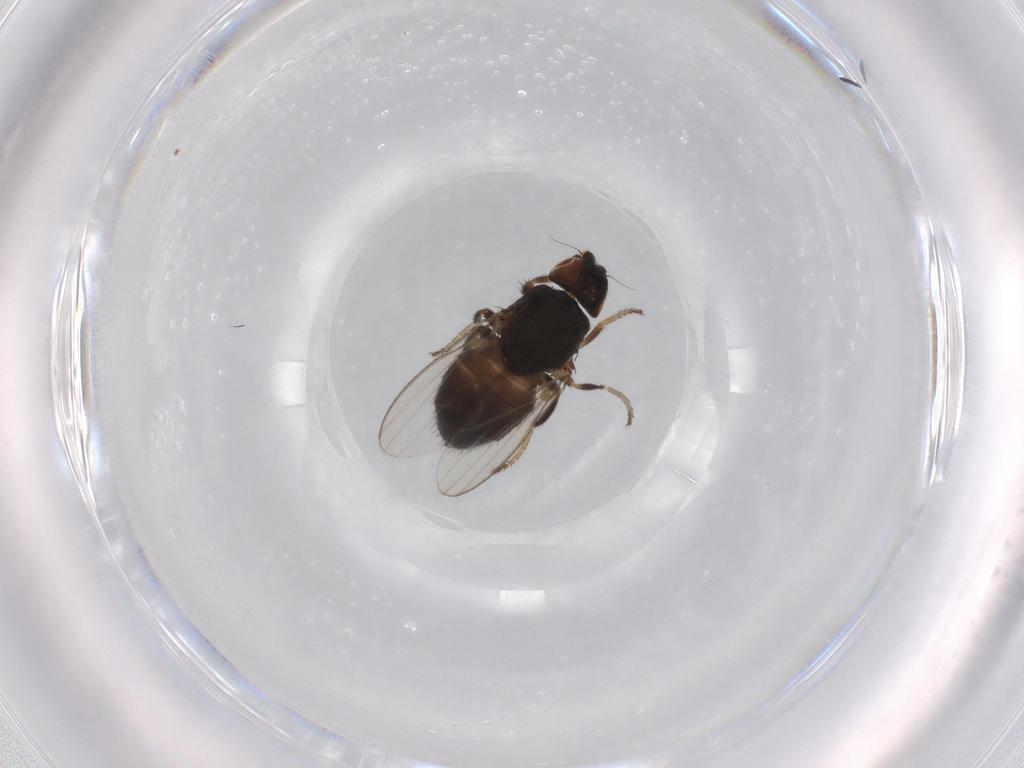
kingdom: Animalia
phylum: Arthropoda
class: Insecta
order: Diptera
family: Milichiidae
